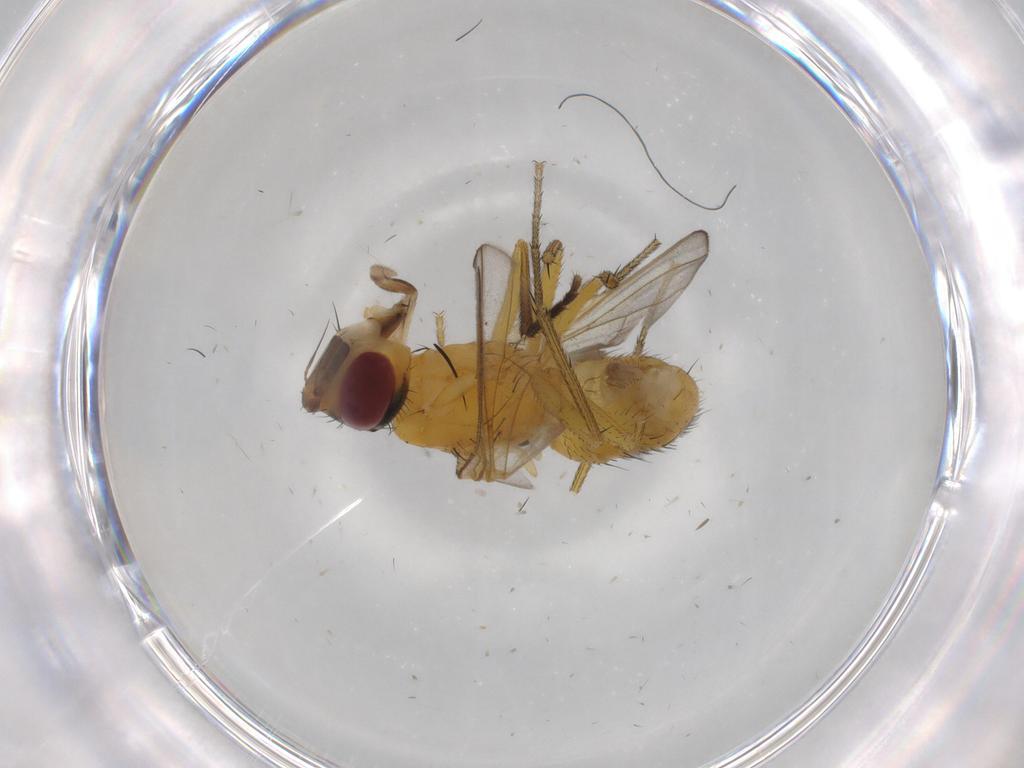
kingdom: Animalia
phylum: Arthropoda
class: Insecta
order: Diptera
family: Muscidae
